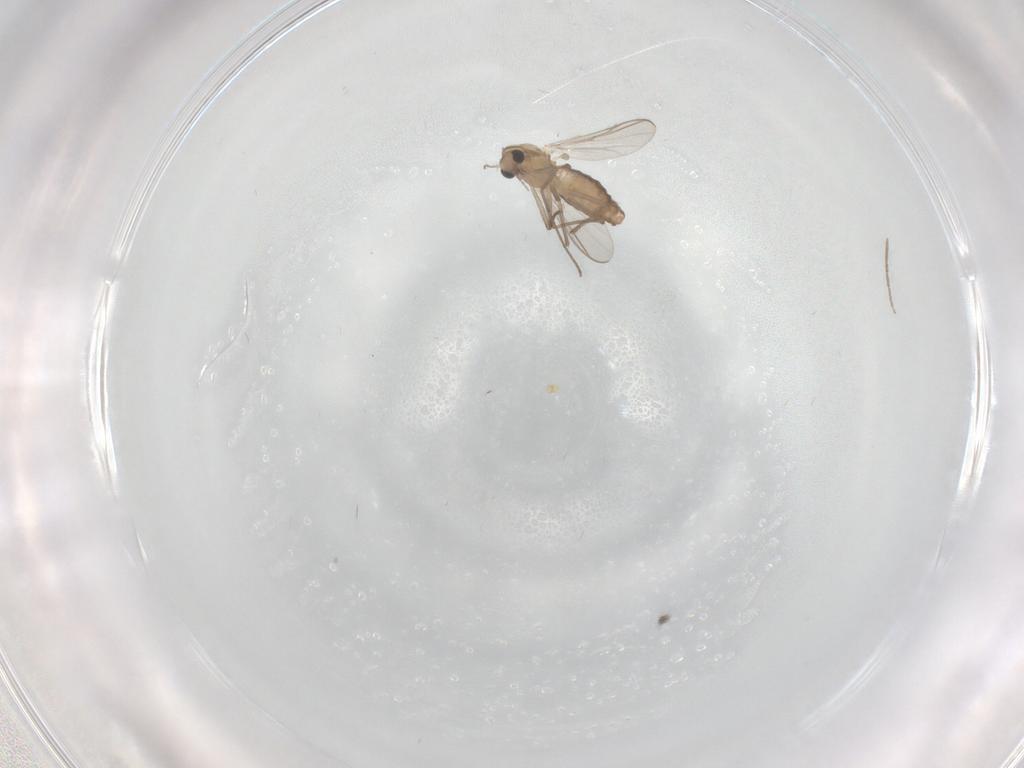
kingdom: Animalia
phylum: Arthropoda
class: Insecta
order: Diptera
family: Chironomidae
